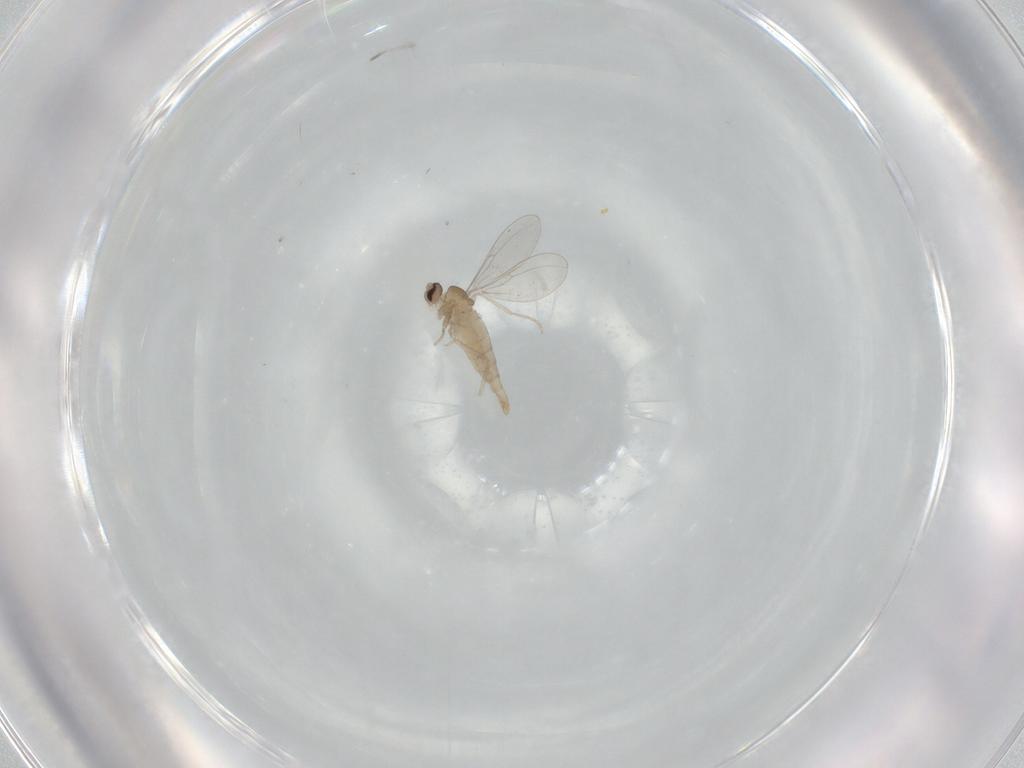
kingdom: Animalia
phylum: Arthropoda
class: Insecta
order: Diptera
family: Cecidomyiidae
